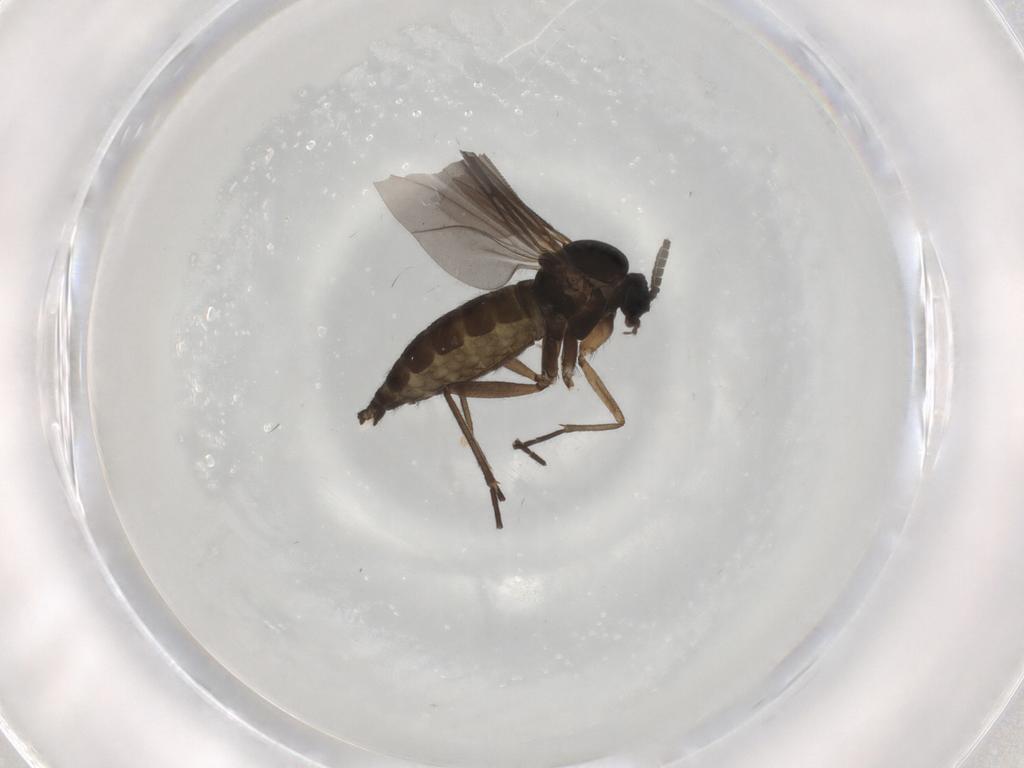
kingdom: Animalia
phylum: Arthropoda
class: Insecta
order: Diptera
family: Sciaridae
